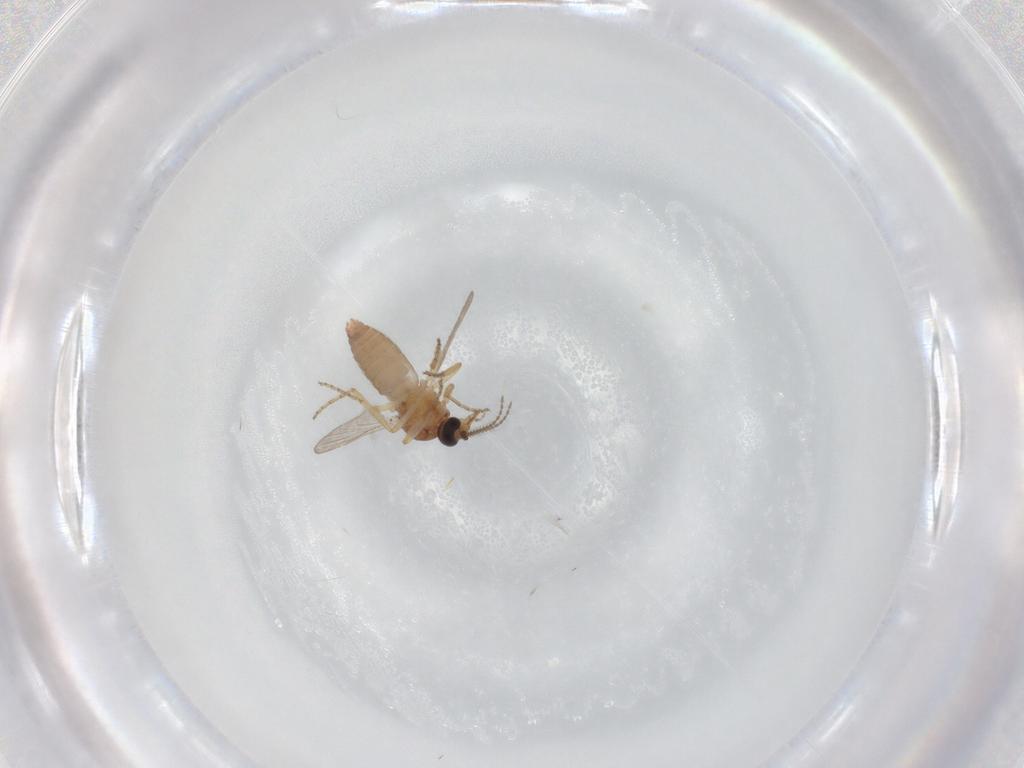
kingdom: Animalia
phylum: Arthropoda
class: Insecta
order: Diptera
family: Ceratopogonidae
